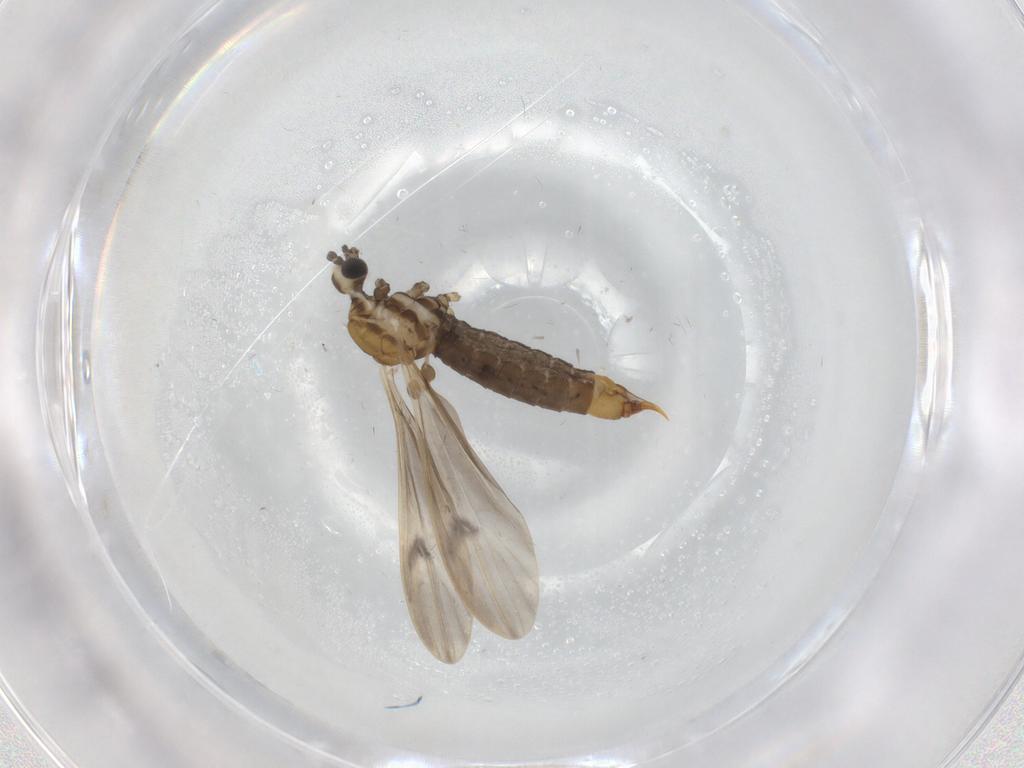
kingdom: Animalia
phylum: Arthropoda
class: Insecta
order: Diptera
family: Limoniidae
